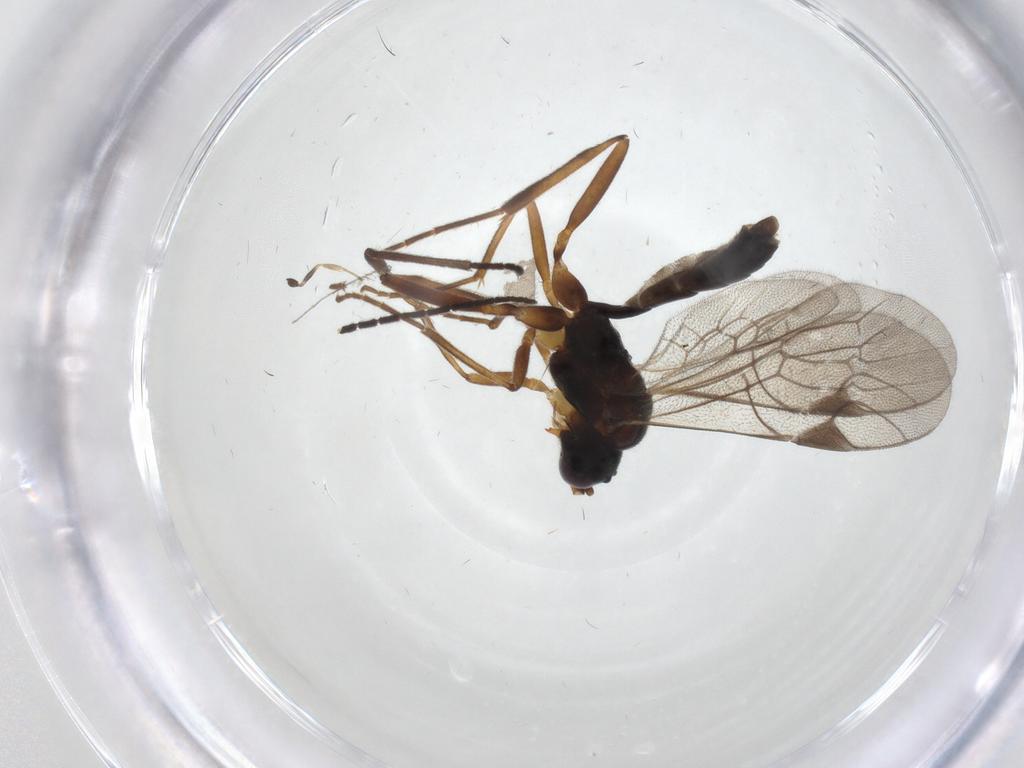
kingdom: Animalia
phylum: Arthropoda
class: Insecta
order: Hymenoptera
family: Ichneumonidae
